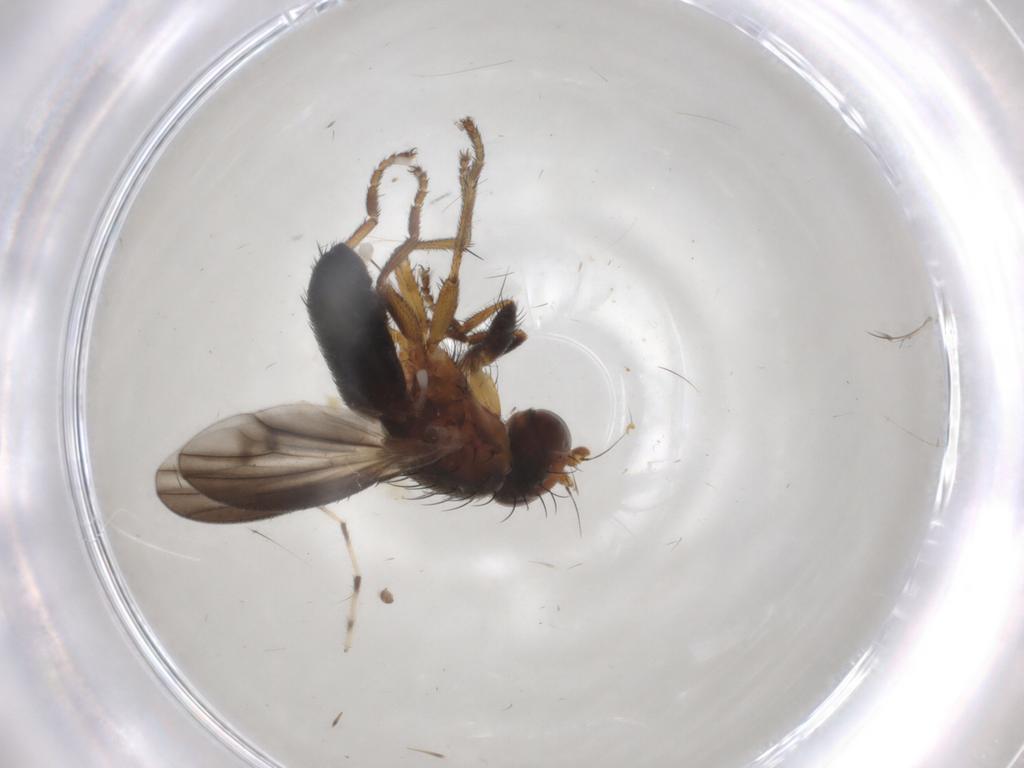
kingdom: Animalia
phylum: Arthropoda
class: Insecta
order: Diptera
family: Heleomyzidae
